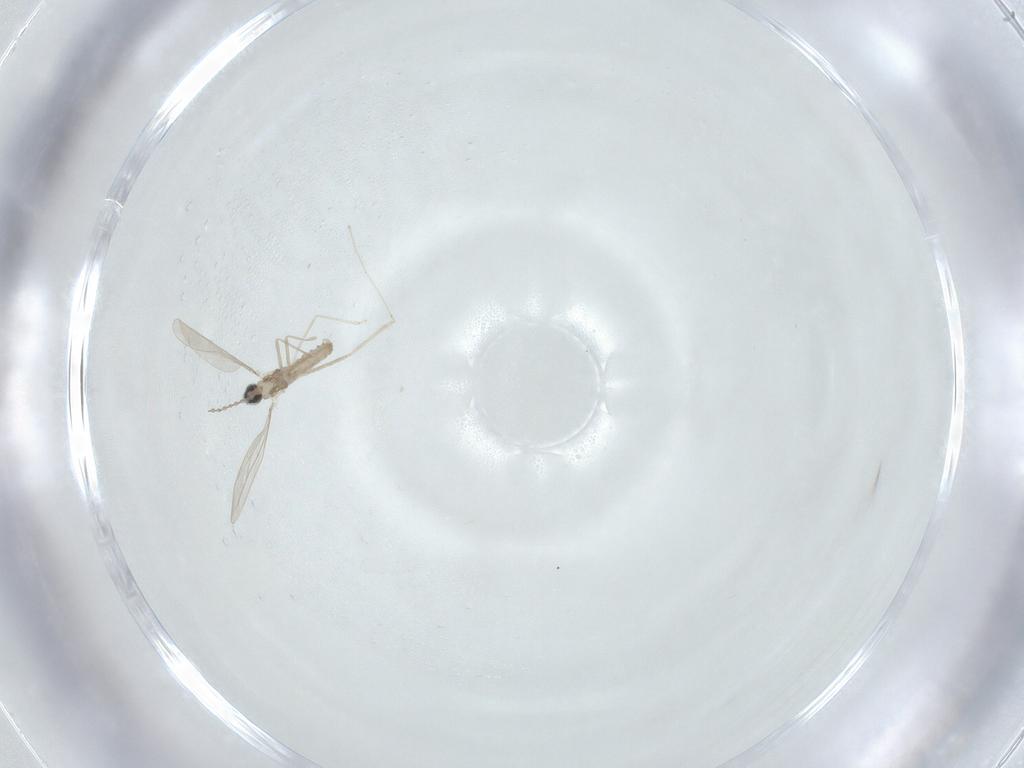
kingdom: Animalia
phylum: Arthropoda
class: Insecta
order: Diptera
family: Cecidomyiidae
